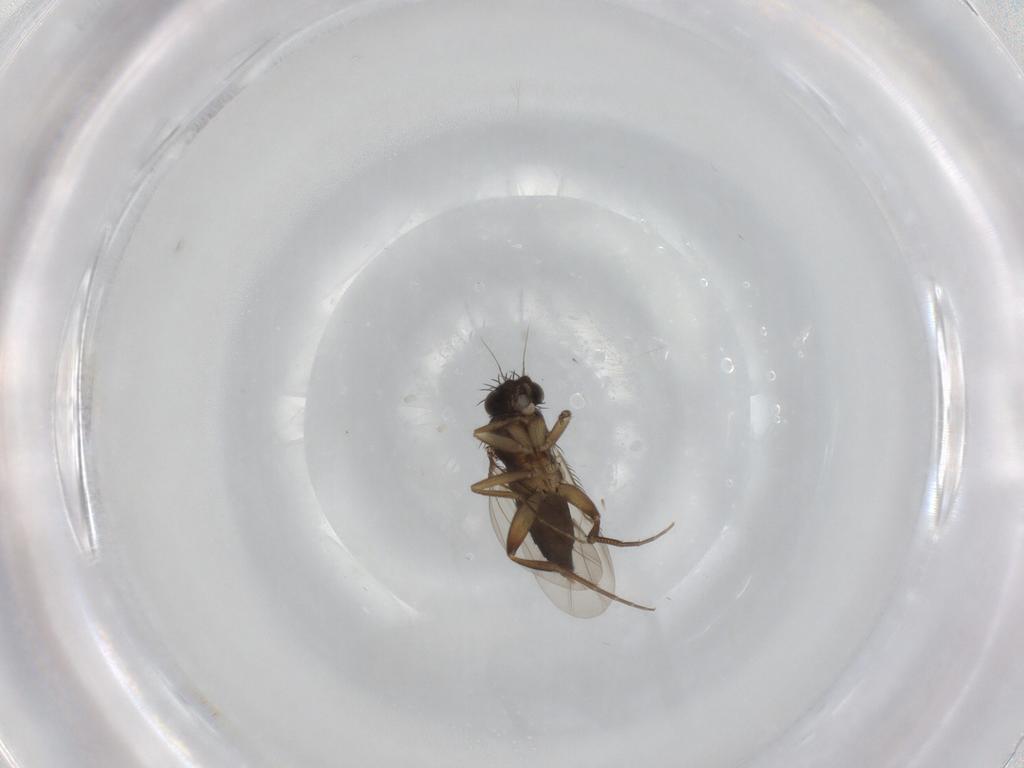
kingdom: Animalia
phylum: Arthropoda
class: Insecta
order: Diptera
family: Phoridae
